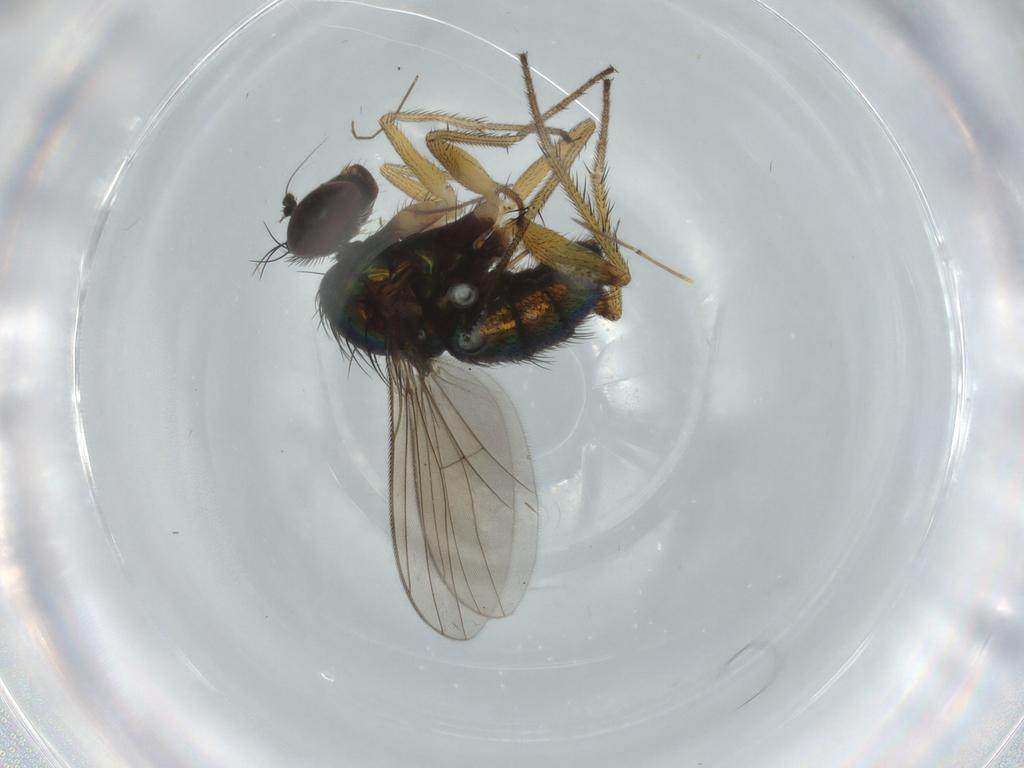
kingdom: Animalia
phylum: Arthropoda
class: Insecta
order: Diptera
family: Dolichopodidae
